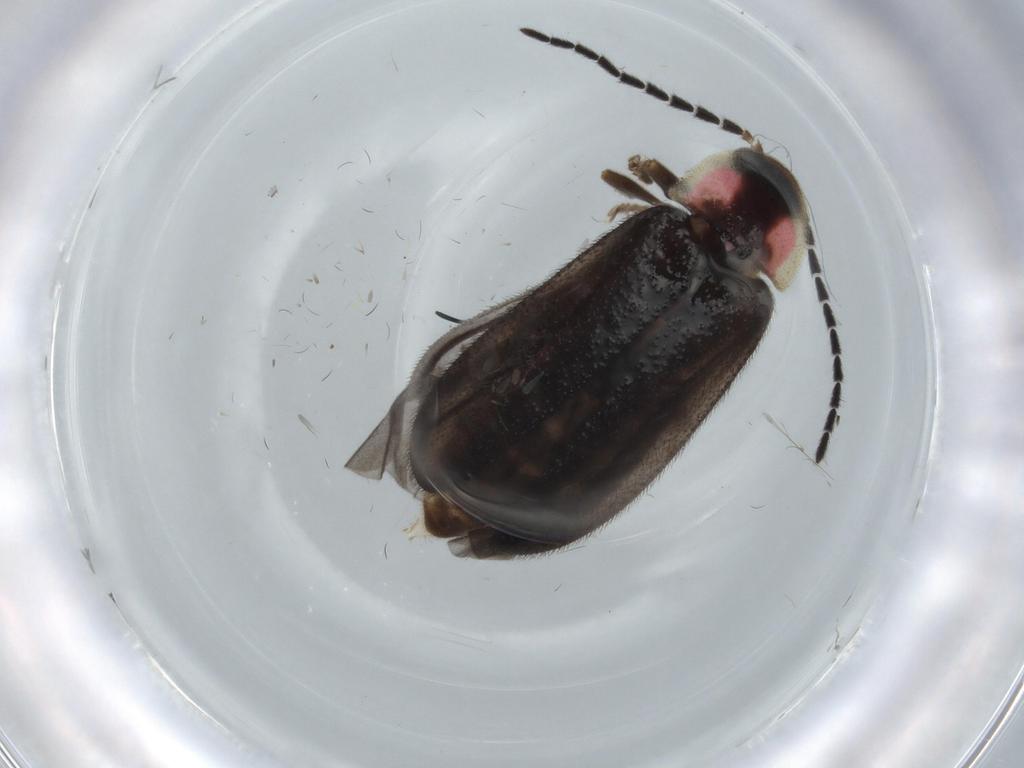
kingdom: Animalia
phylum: Arthropoda
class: Insecta
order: Coleoptera
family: Lampyridae
